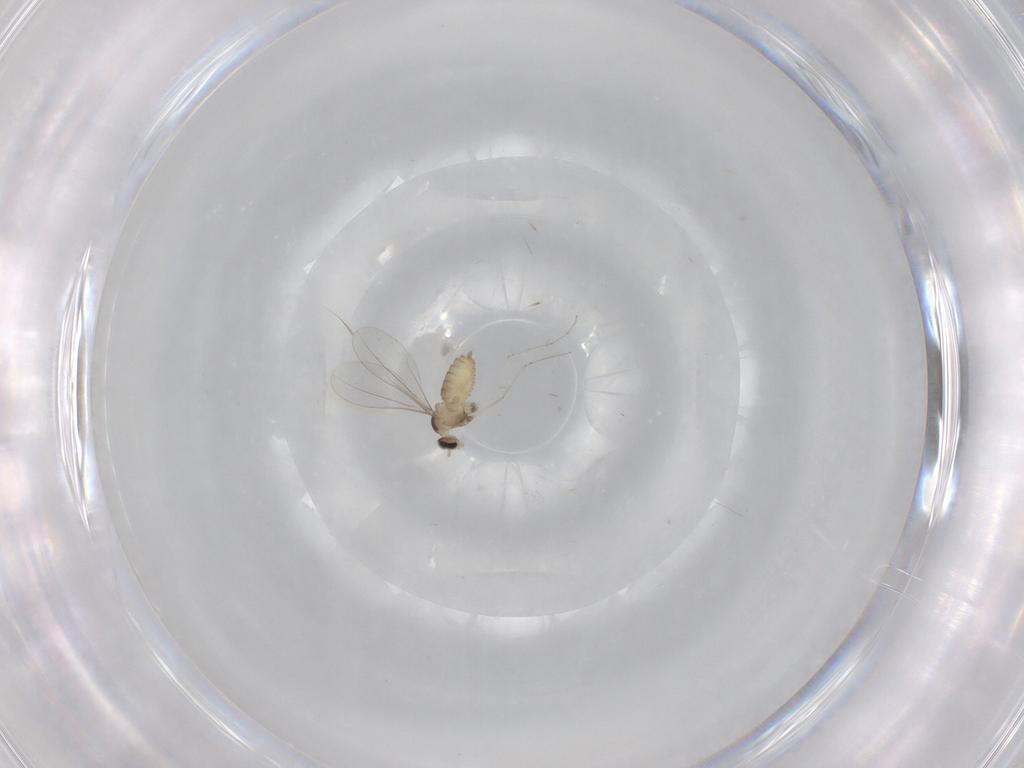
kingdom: Animalia
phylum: Arthropoda
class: Insecta
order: Diptera
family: Cecidomyiidae
